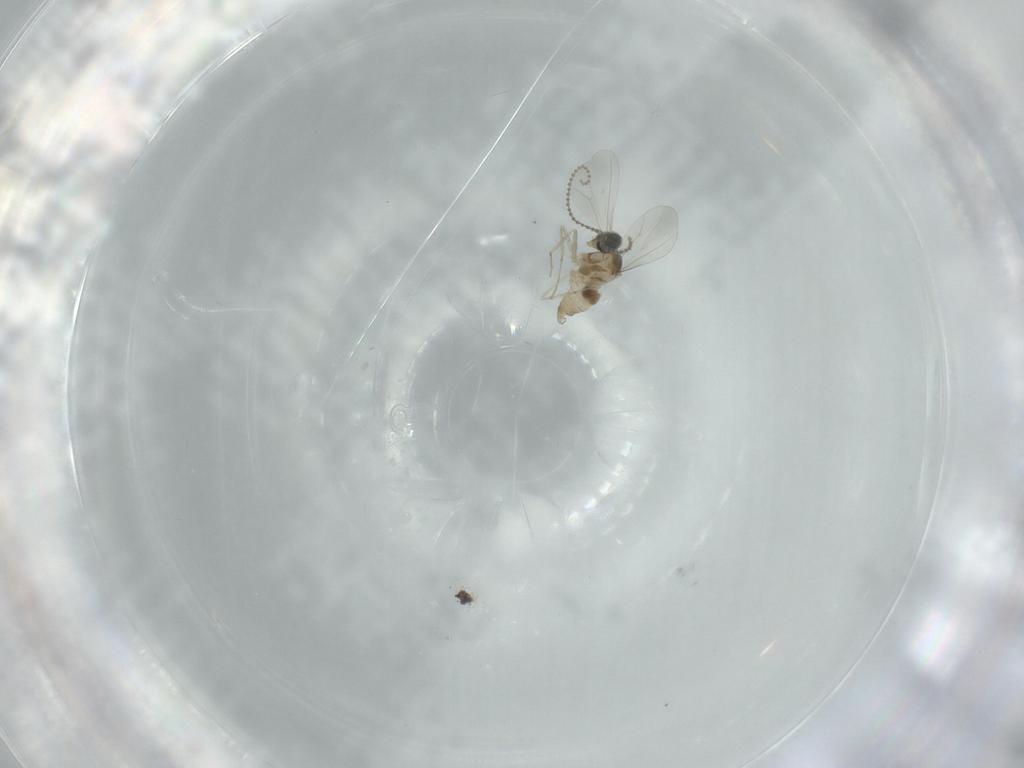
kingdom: Animalia
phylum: Arthropoda
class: Insecta
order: Diptera
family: Cecidomyiidae
